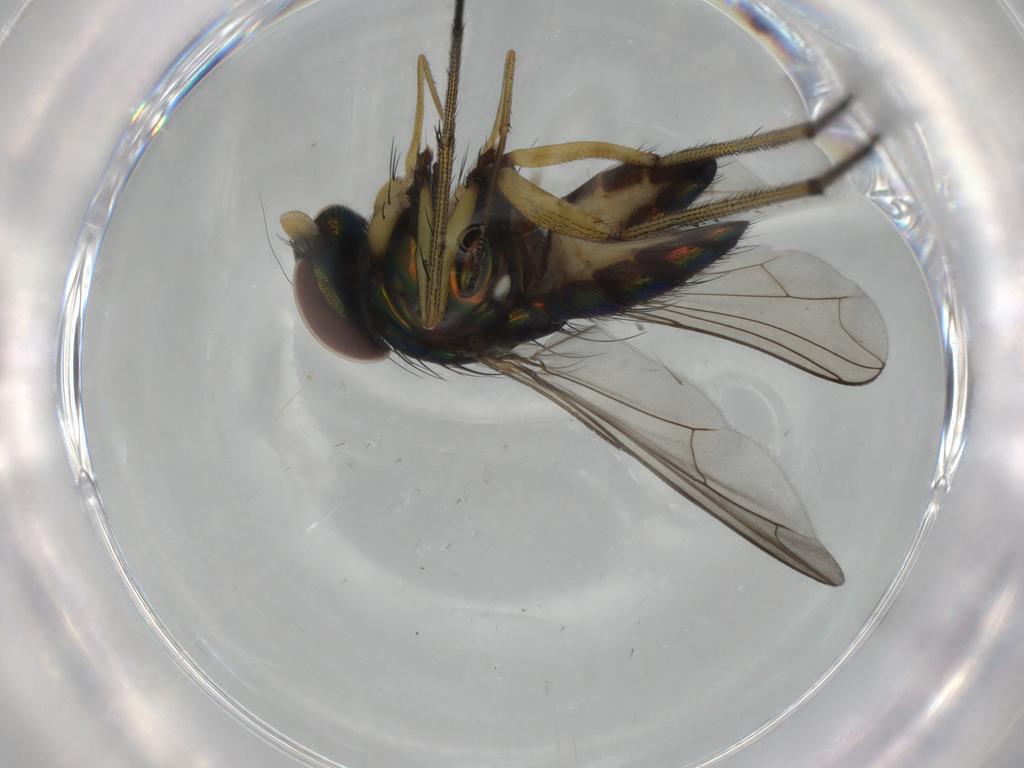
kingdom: Animalia
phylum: Arthropoda
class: Insecta
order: Diptera
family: Dolichopodidae
